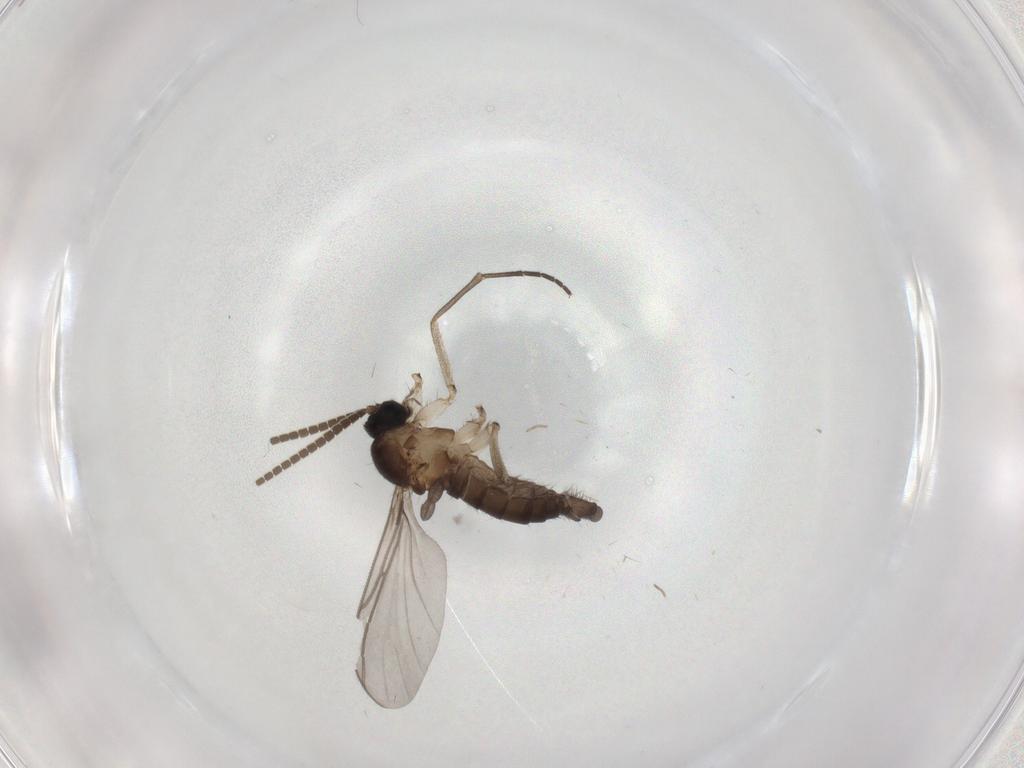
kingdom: Animalia
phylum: Arthropoda
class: Insecta
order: Diptera
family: Sciaridae
